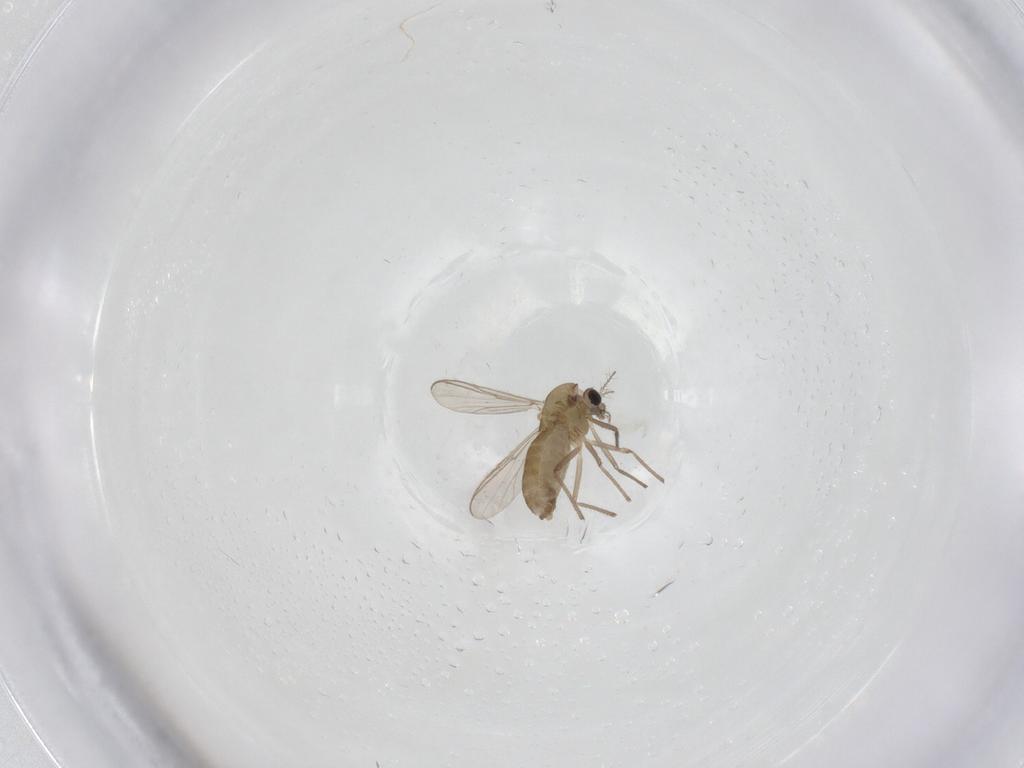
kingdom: Animalia
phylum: Arthropoda
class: Insecta
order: Diptera
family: Chironomidae
